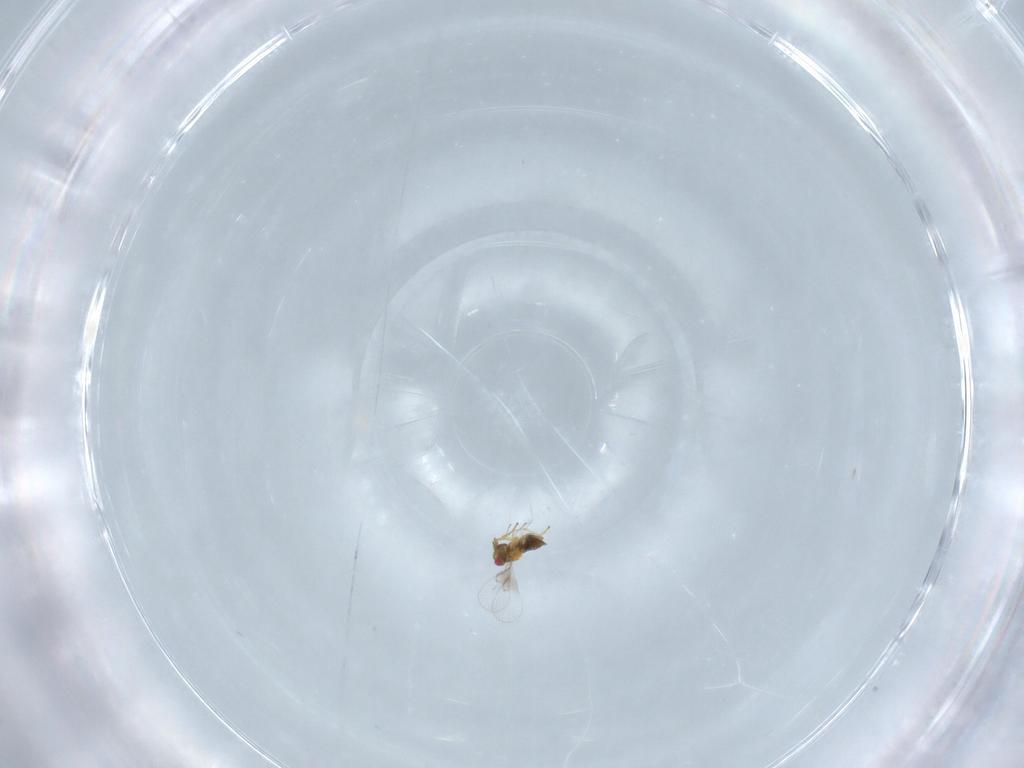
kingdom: Animalia
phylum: Arthropoda
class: Insecta
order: Hymenoptera
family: Trichogrammatidae
